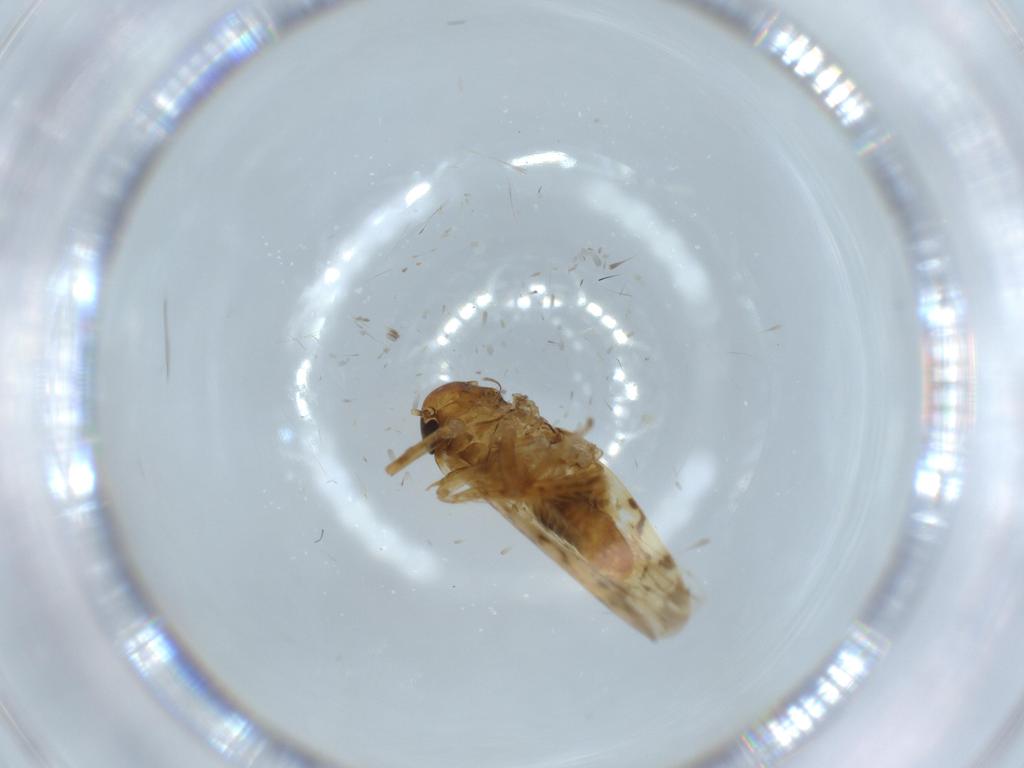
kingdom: Animalia
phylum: Arthropoda
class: Insecta
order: Hemiptera
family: Cicadellidae
